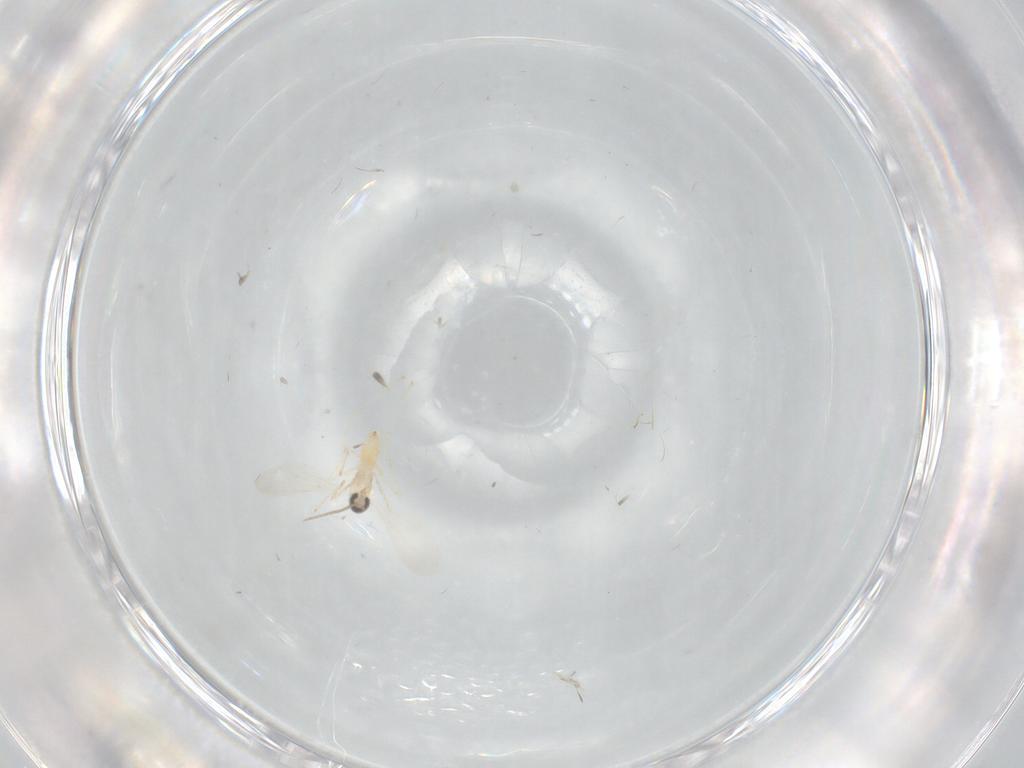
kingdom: Animalia
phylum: Arthropoda
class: Insecta
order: Diptera
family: Cecidomyiidae
